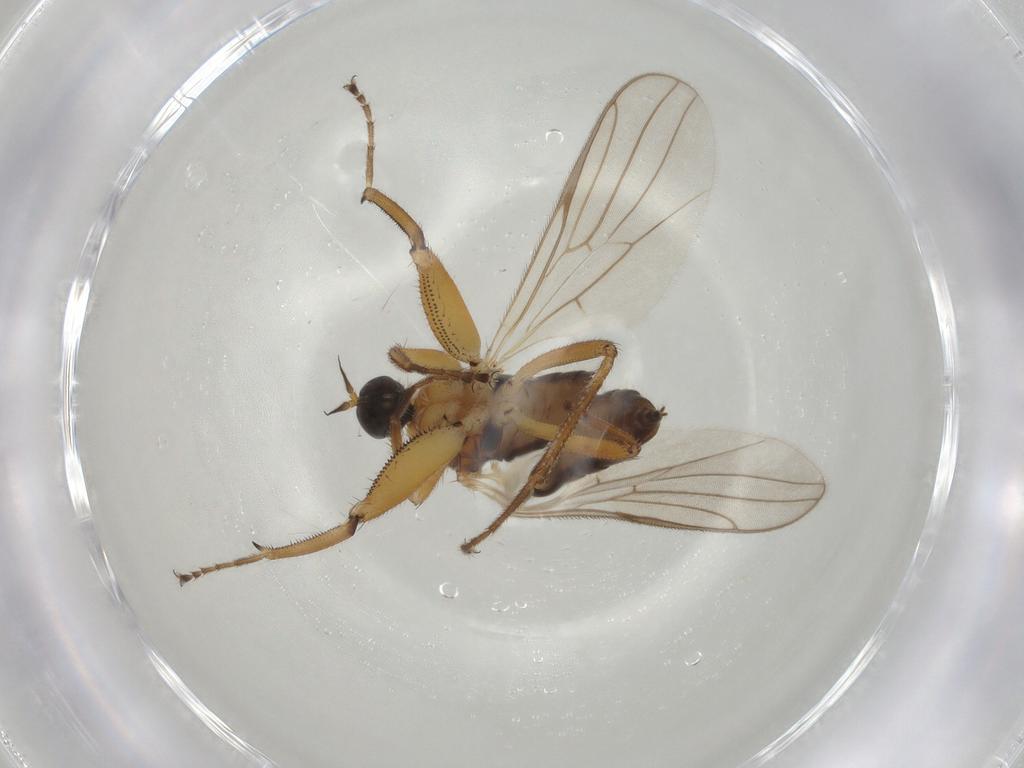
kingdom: Animalia
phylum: Arthropoda
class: Insecta
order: Diptera
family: Hybotidae
